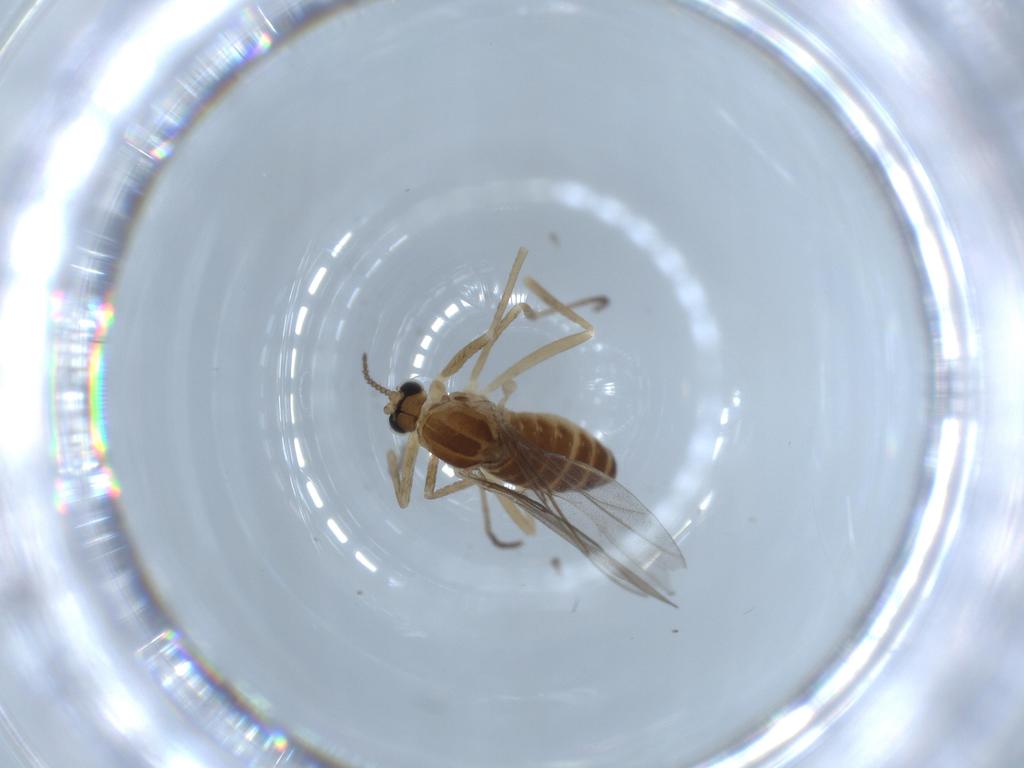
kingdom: Animalia
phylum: Arthropoda
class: Insecta
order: Diptera
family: Cecidomyiidae
